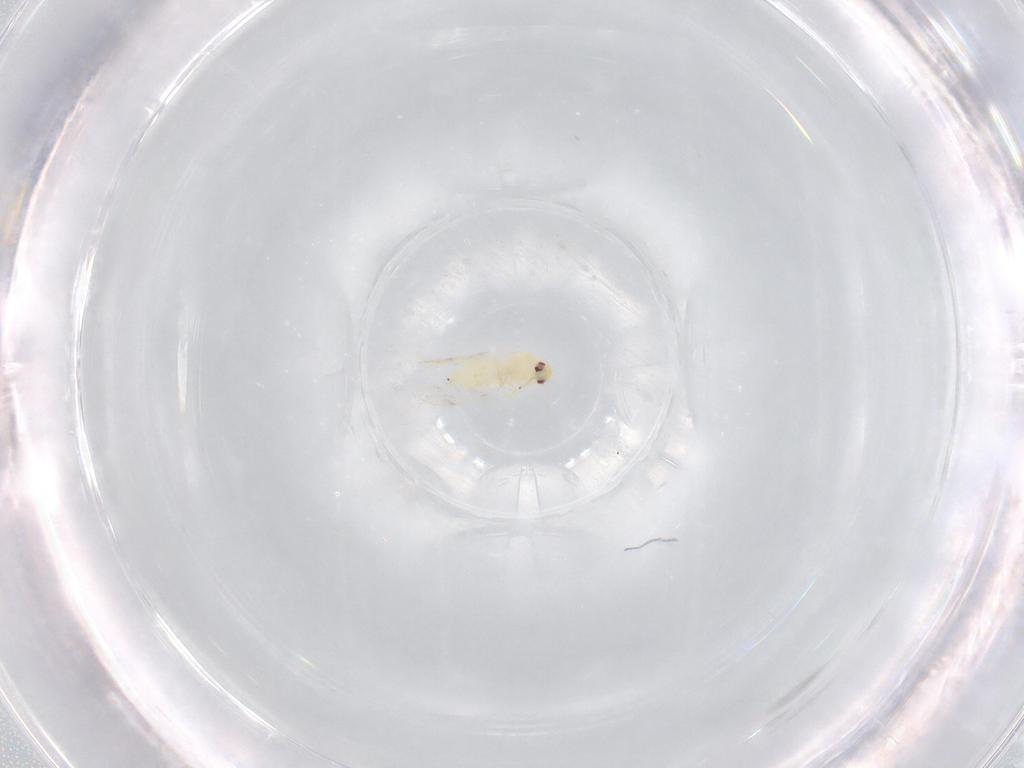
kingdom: Animalia
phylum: Arthropoda
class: Insecta
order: Hemiptera
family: Aleyrodidae
